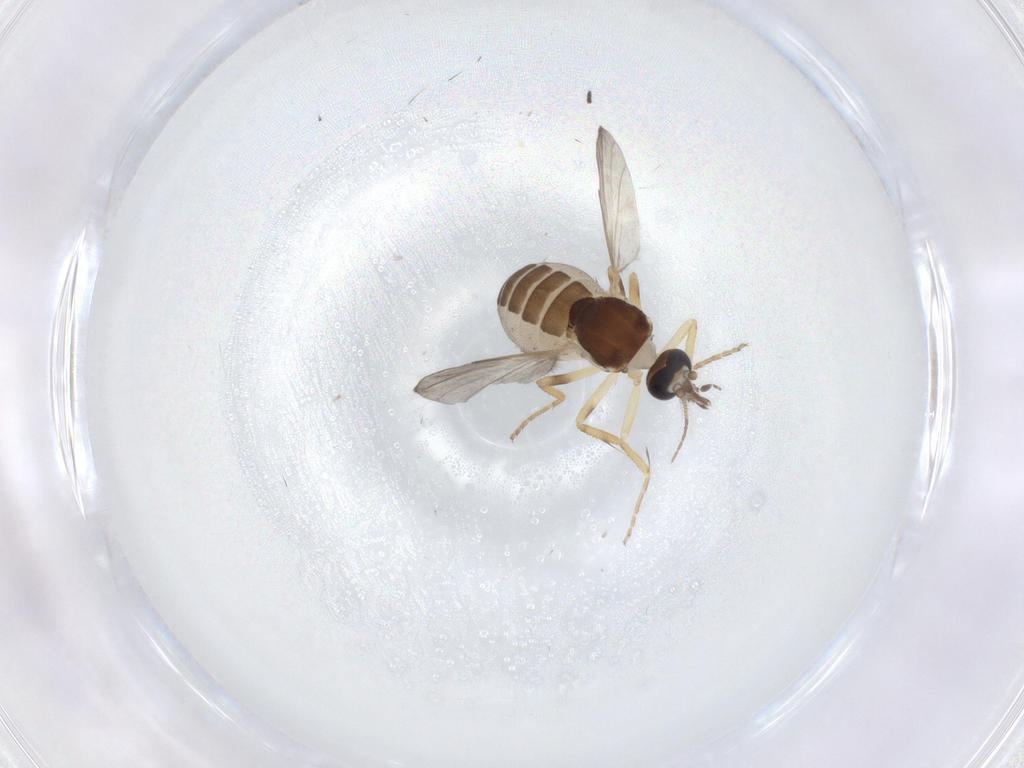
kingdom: Animalia
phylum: Arthropoda
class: Insecta
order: Diptera
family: Ceratopogonidae
